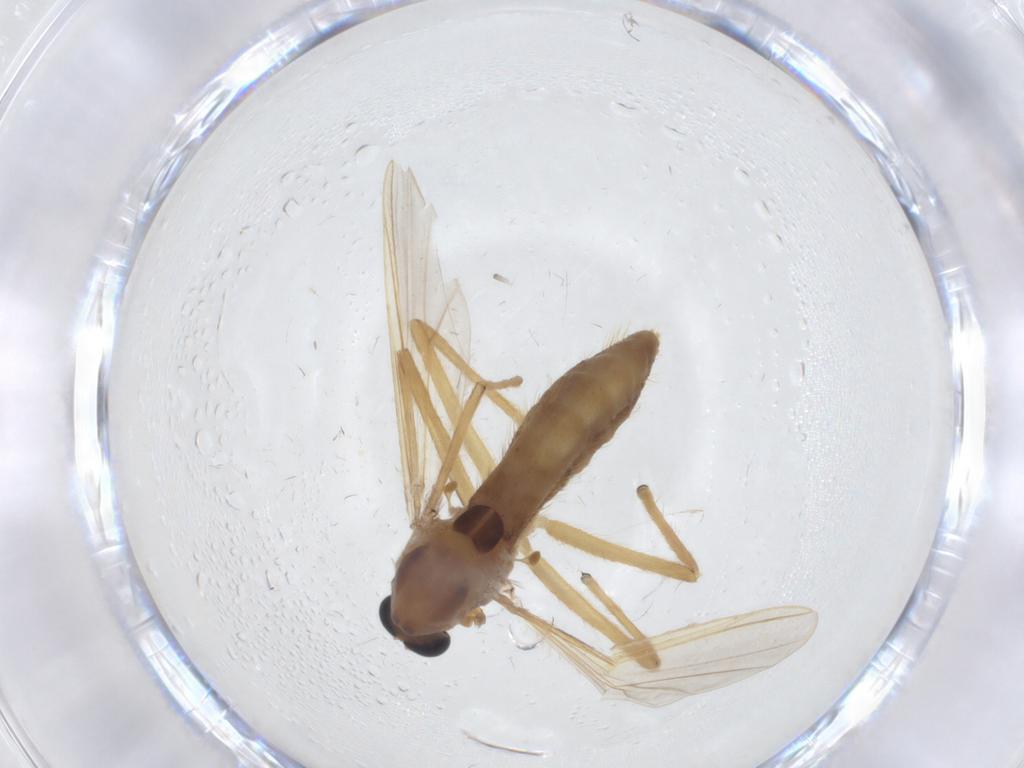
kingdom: Animalia
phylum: Arthropoda
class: Insecta
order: Diptera
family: Chironomidae
